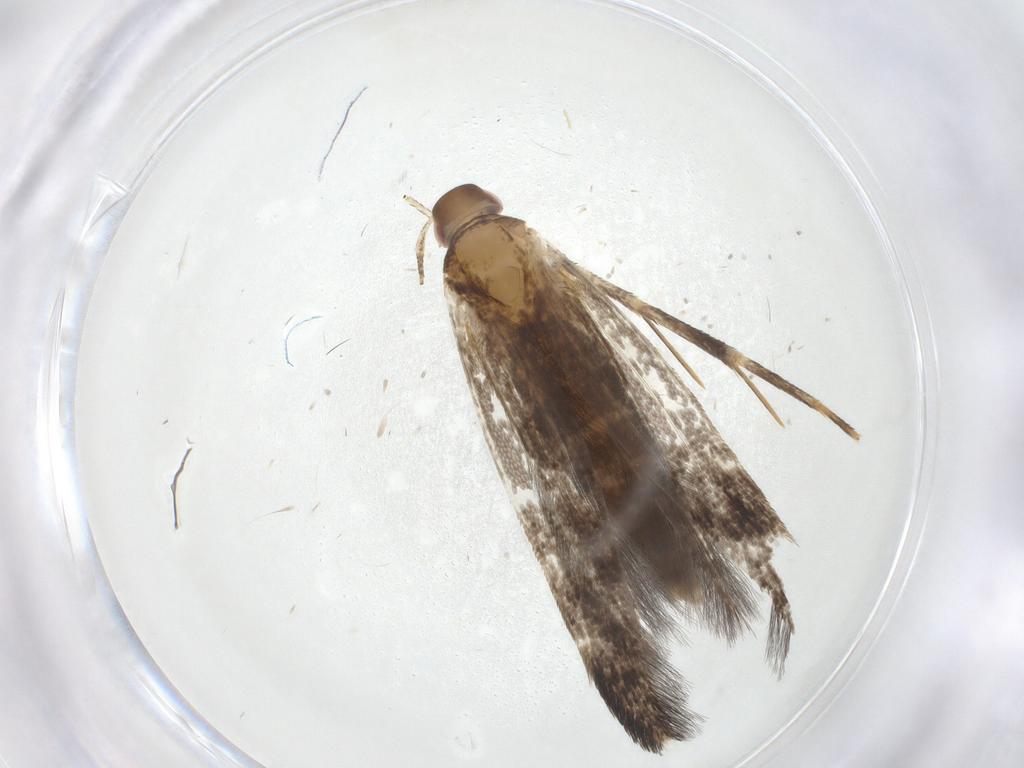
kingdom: Animalia
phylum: Arthropoda
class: Insecta
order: Lepidoptera
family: Cosmopterigidae
